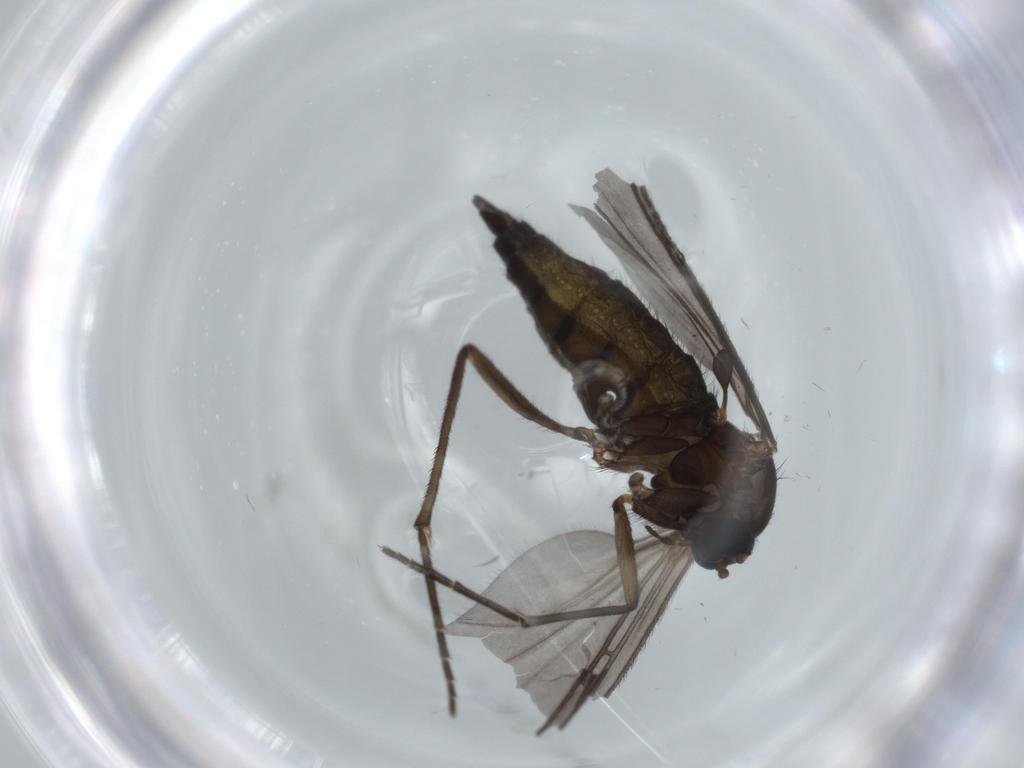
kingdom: Animalia
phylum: Arthropoda
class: Insecta
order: Diptera
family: Sciaridae
